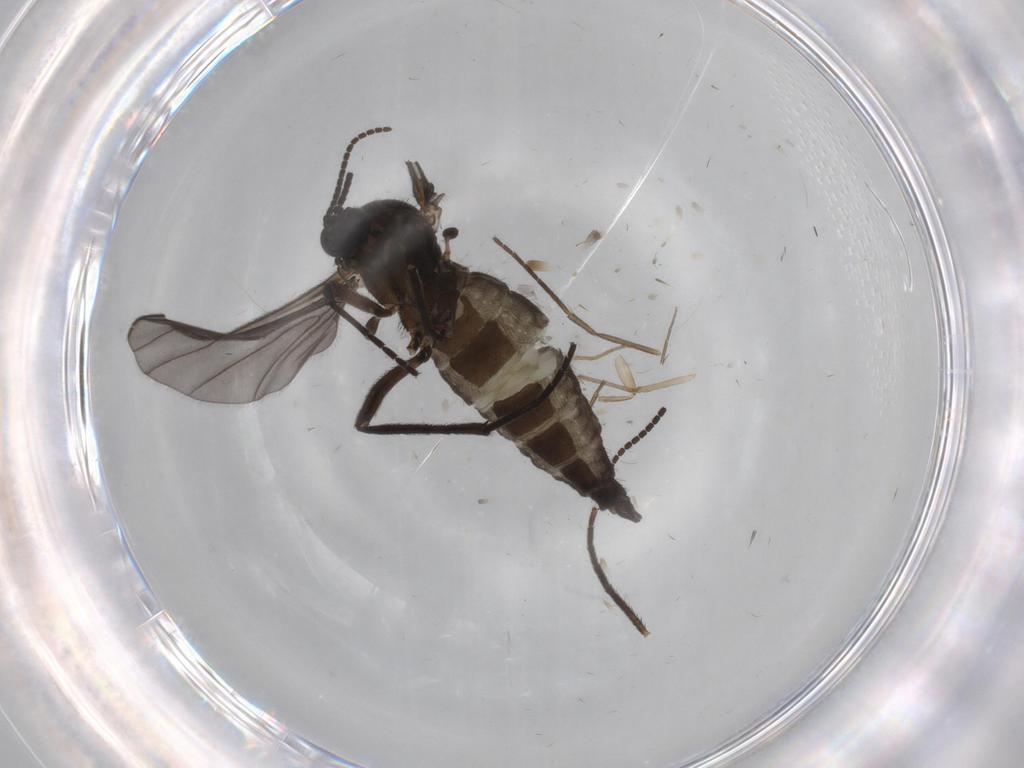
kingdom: Animalia
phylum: Arthropoda
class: Insecta
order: Diptera
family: Sciaridae
